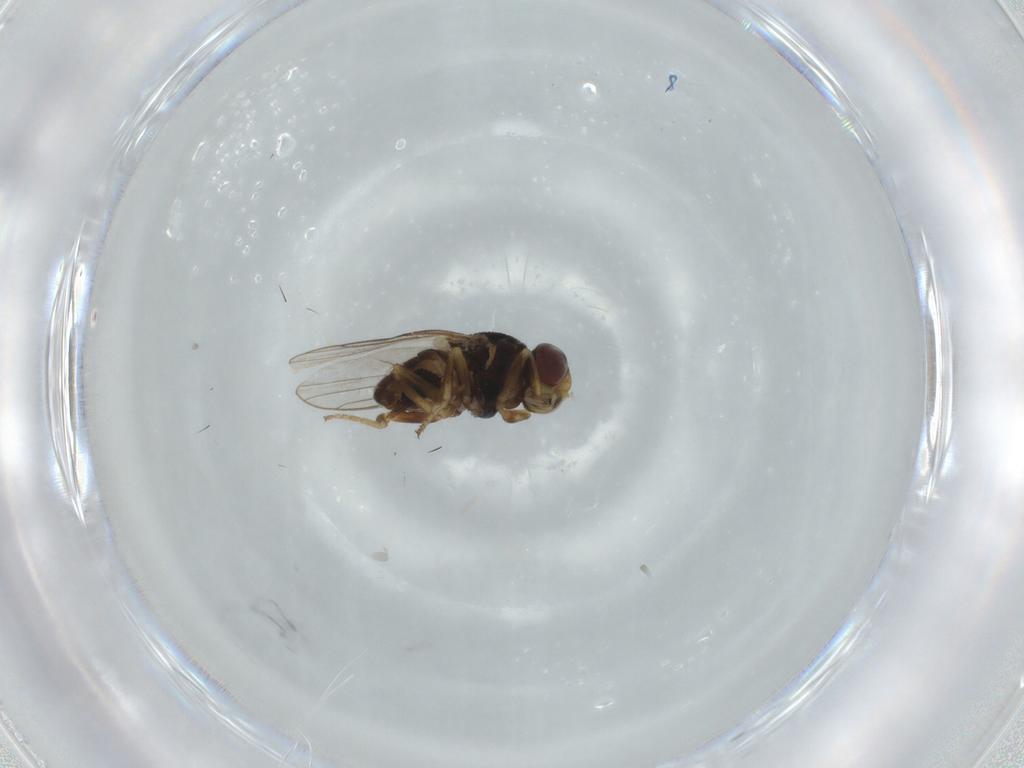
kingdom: Animalia
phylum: Arthropoda
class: Insecta
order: Diptera
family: Chloropidae
